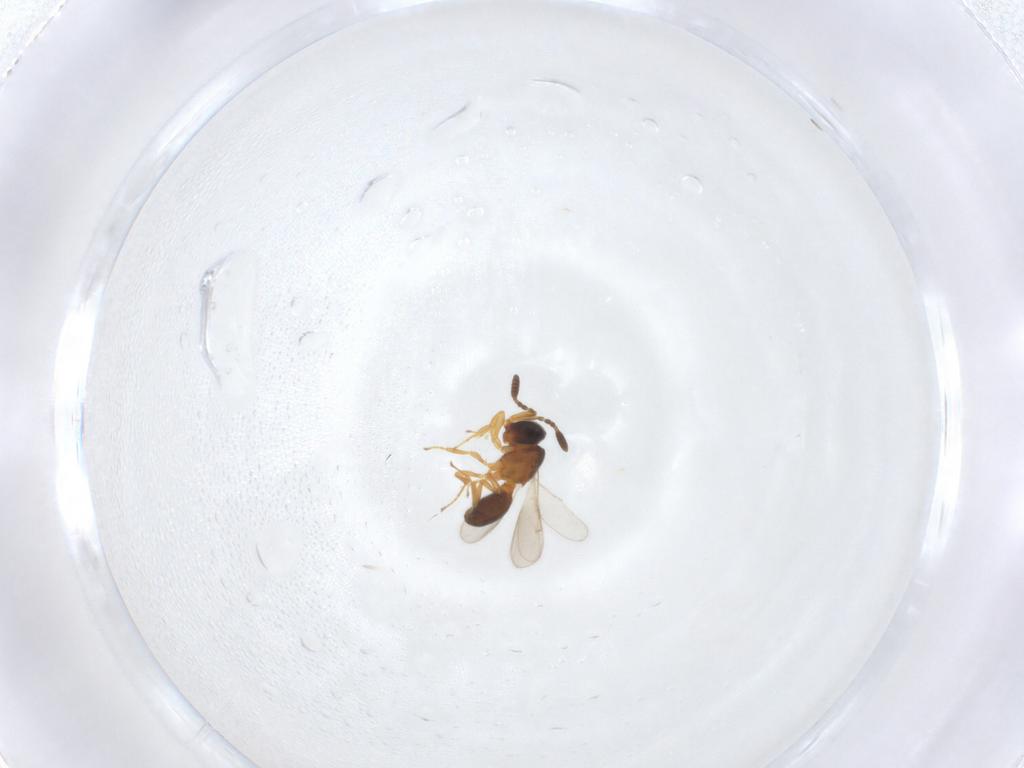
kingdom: Animalia
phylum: Arthropoda
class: Insecta
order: Hymenoptera
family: Scelionidae
